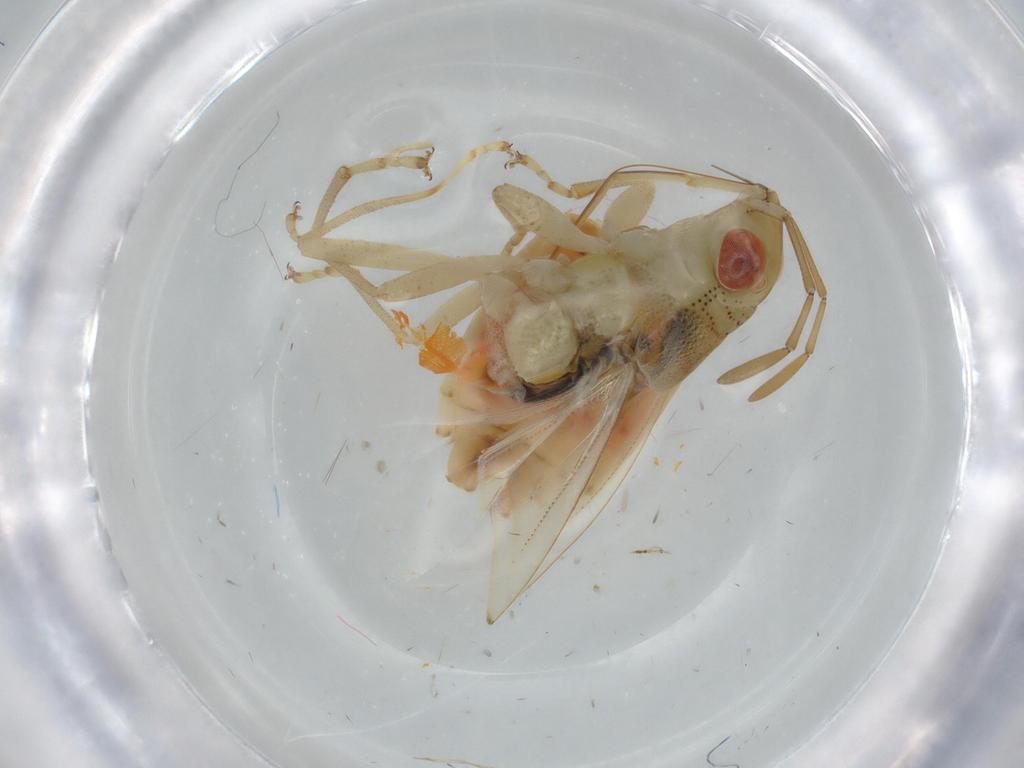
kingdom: Animalia
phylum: Arthropoda
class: Insecta
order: Hemiptera
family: Geocoridae
